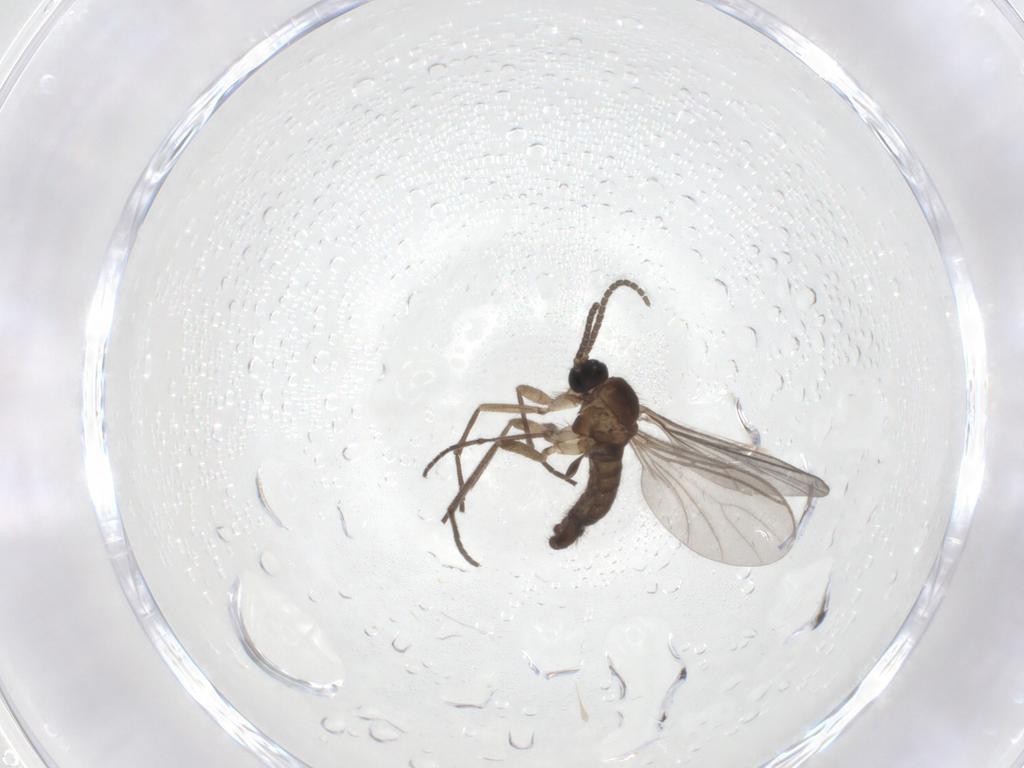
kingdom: Animalia
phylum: Arthropoda
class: Insecta
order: Diptera
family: Sciaridae
